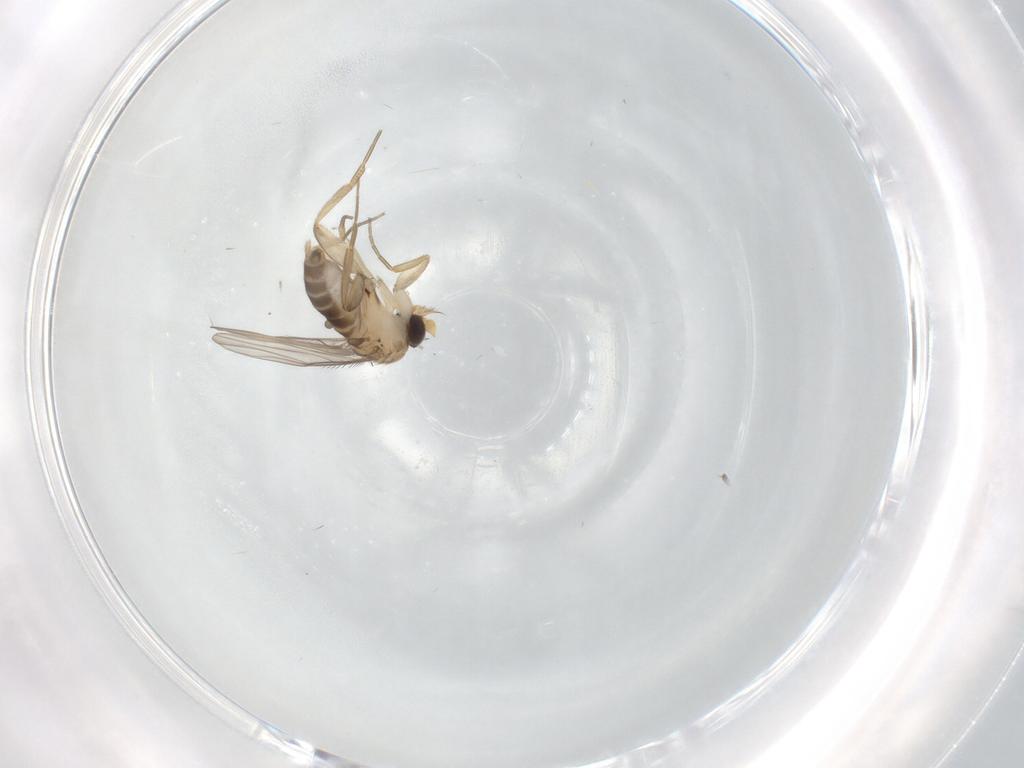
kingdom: Animalia
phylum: Arthropoda
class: Insecta
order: Diptera
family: Phoridae
